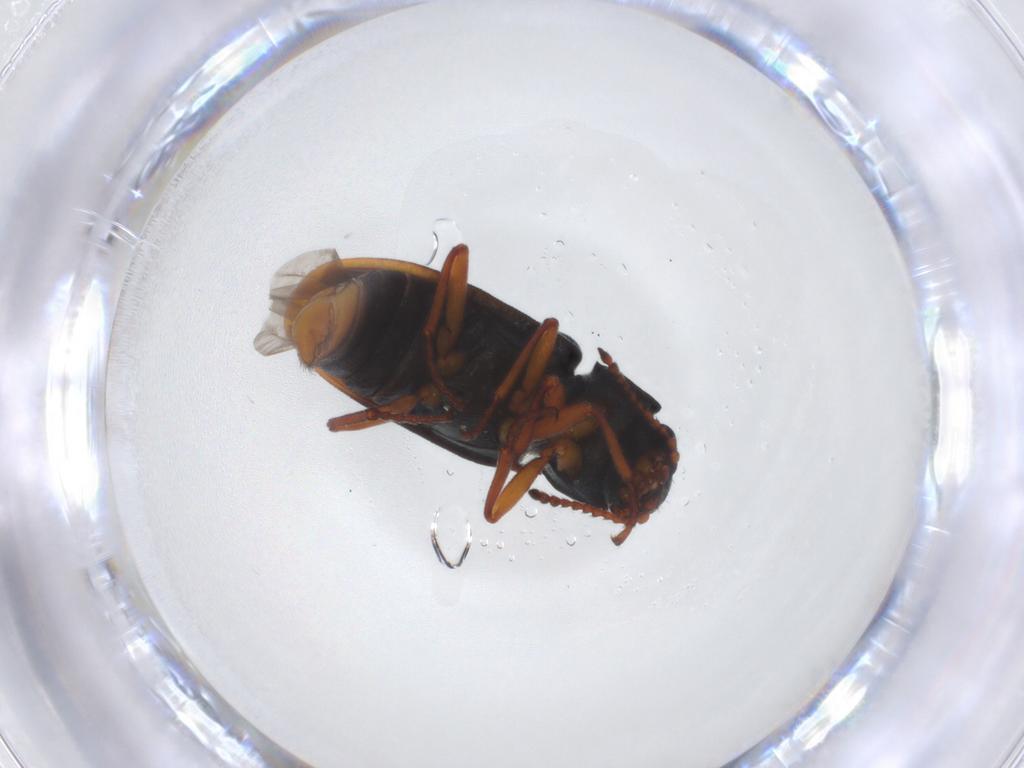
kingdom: Animalia
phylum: Arthropoda
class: Insecta
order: Coleoptera
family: Melyridae
